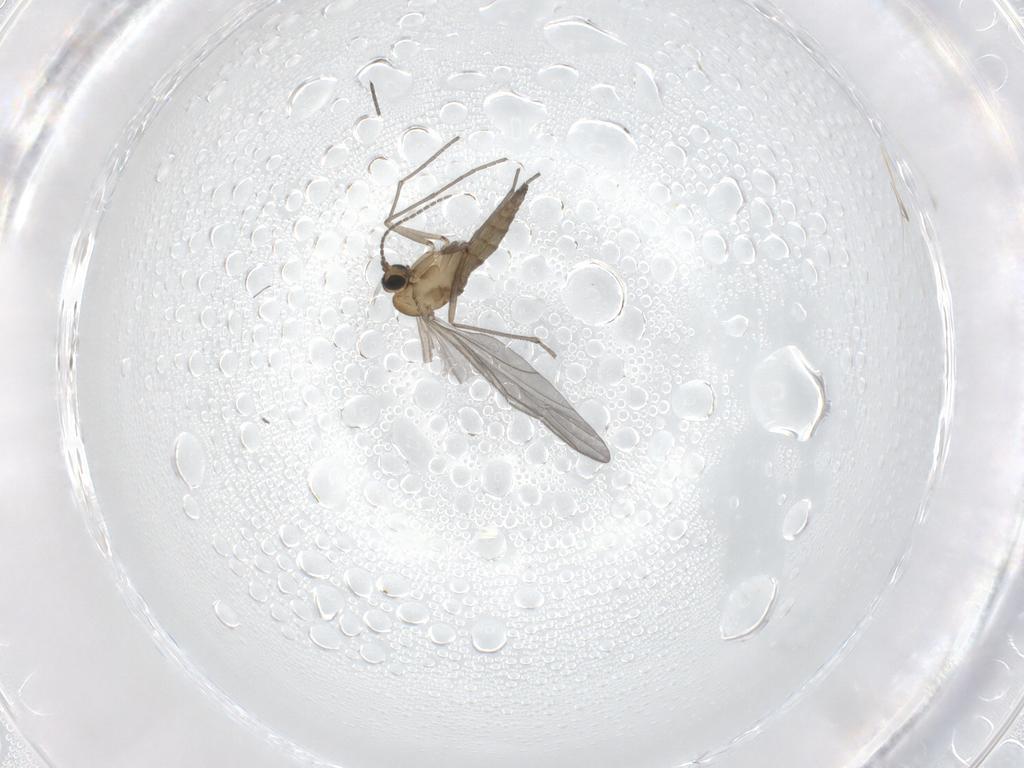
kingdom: Animalia
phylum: Arthropoda
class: Insecta
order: Diptera
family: Sciaridae
